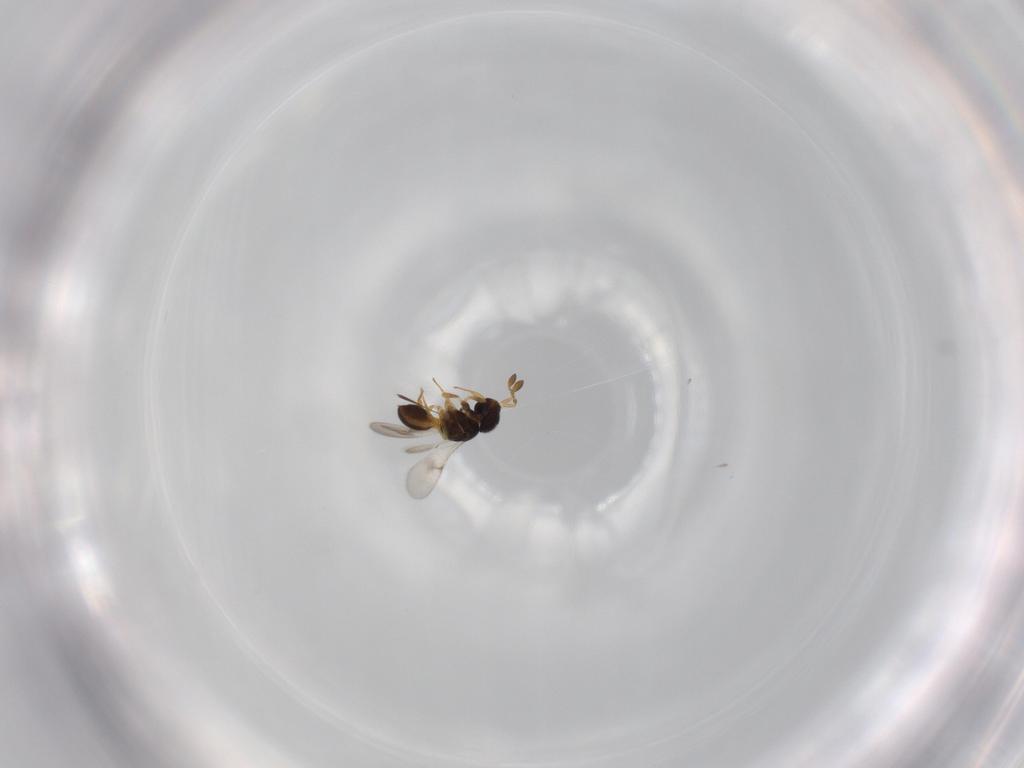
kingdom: Animalia
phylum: Arthropoda
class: Insecta
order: Hymenoptera
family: Scelionidae
